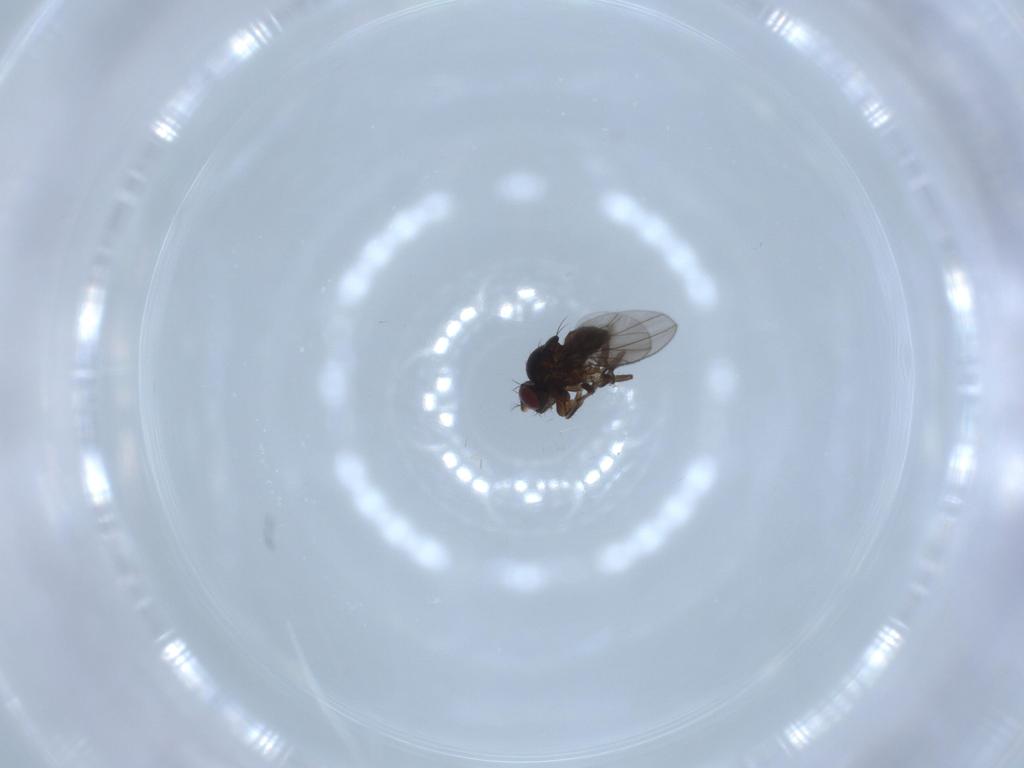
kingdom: Animalia
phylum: Arthropoda
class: Insecta
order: Diptera
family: Ephydridae
